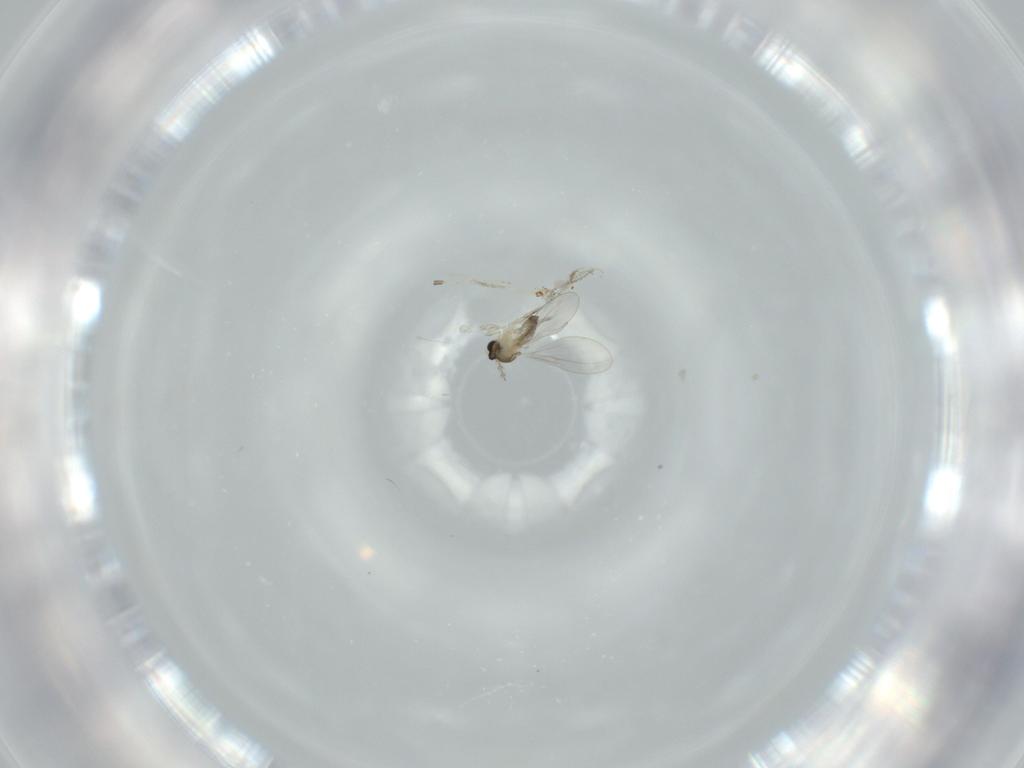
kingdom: Animalia
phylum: Arthropoda
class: Insecta
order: Diptera
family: Cecidomyiidae
